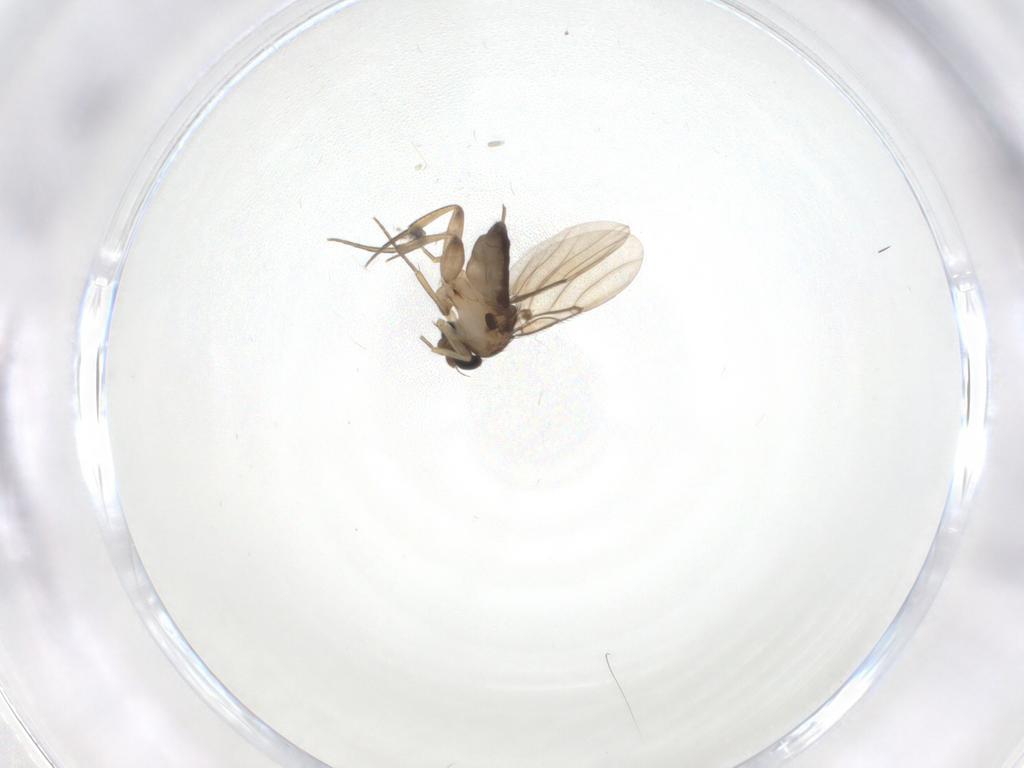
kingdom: Animalia
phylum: Arthropoda
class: Insecta
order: Diptera
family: Phoridae
